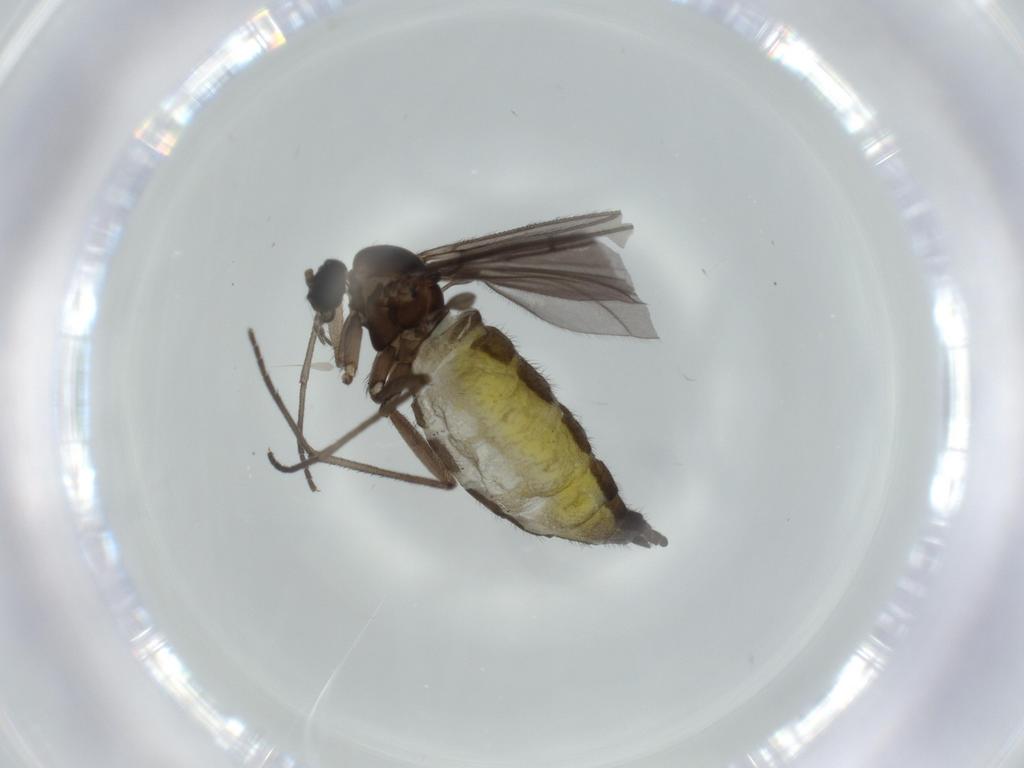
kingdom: Animalia
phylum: Arthropoda
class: Insecta
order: Diptera
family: Sciaridae
